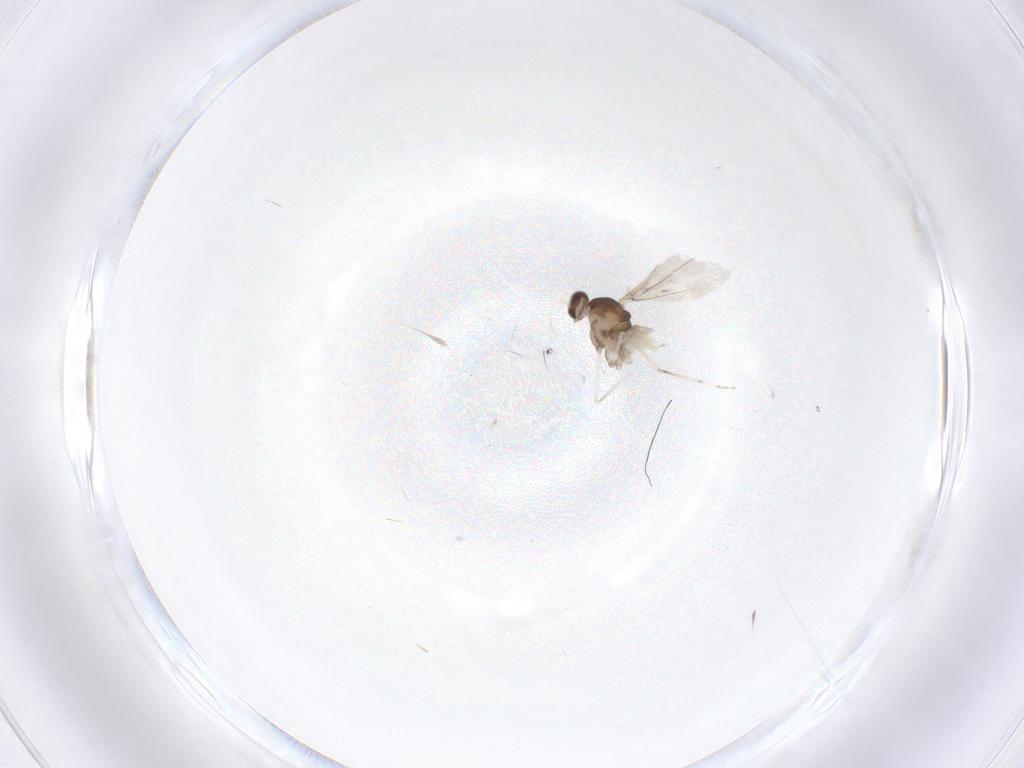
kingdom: Animalia
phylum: Arthropoda
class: Insecta
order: Diptera
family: Cecidomyiidae
